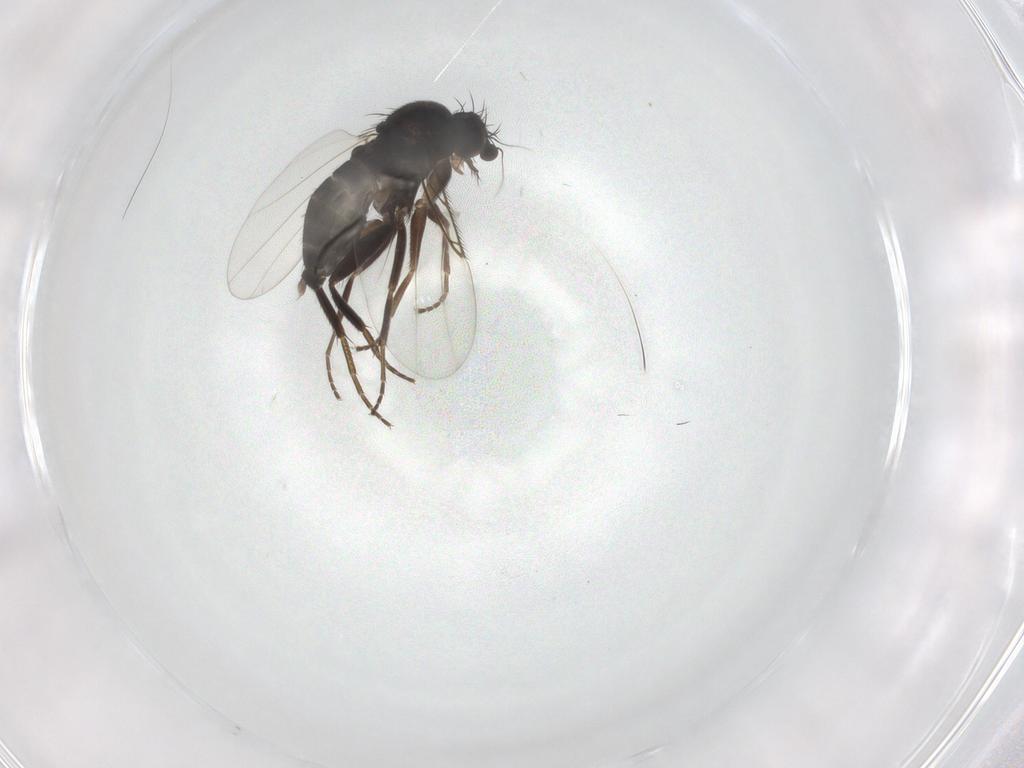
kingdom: Animalia
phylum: Arthropoda
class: Insecta
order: Diptera
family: Phoridae
